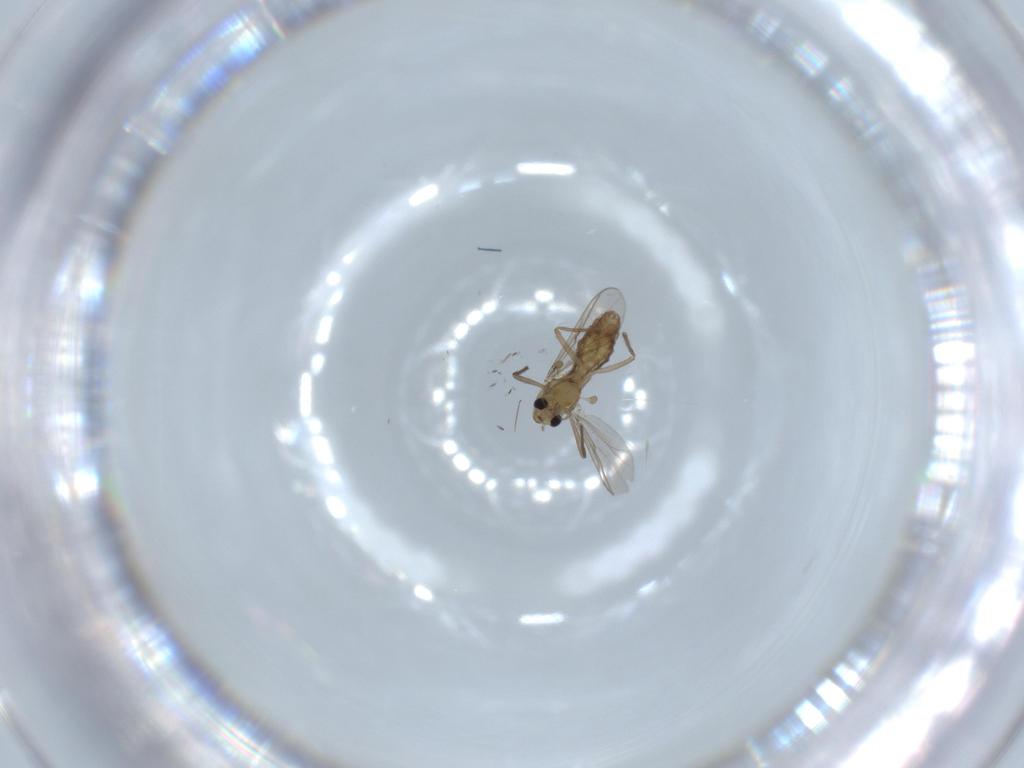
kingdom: Animalia
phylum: Arthropoda
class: Insecta
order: Diptera
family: Chironomidae
